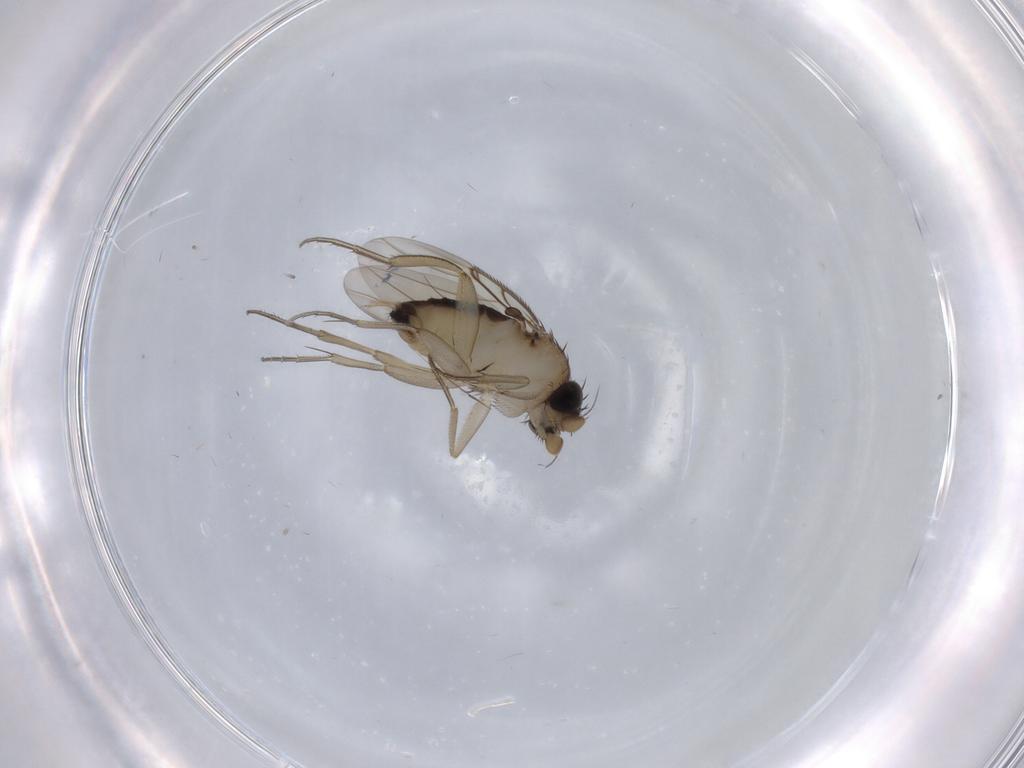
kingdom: Animalia
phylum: Arthropoda
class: Insecta
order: Diptera
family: Phoridae
